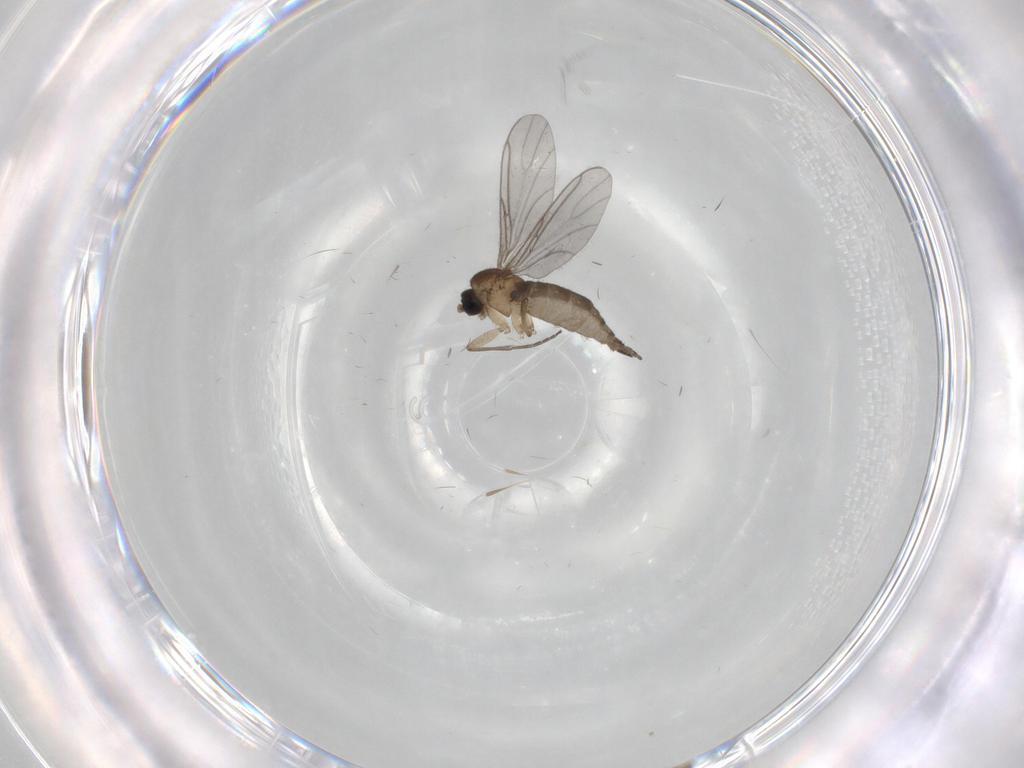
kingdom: Animalia
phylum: Arthropoda
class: Insecta
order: Diptera
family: Sciaridae
